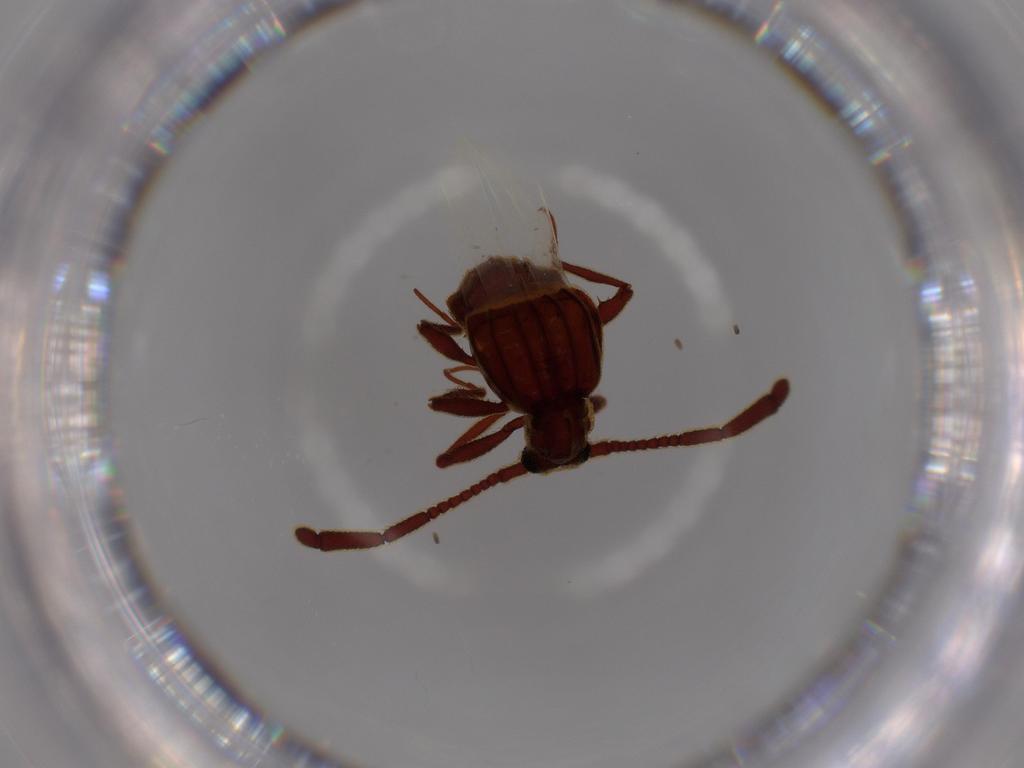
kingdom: Animalia
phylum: Arthropoda
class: Insecta
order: Coleoptera
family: Staphylinidae
